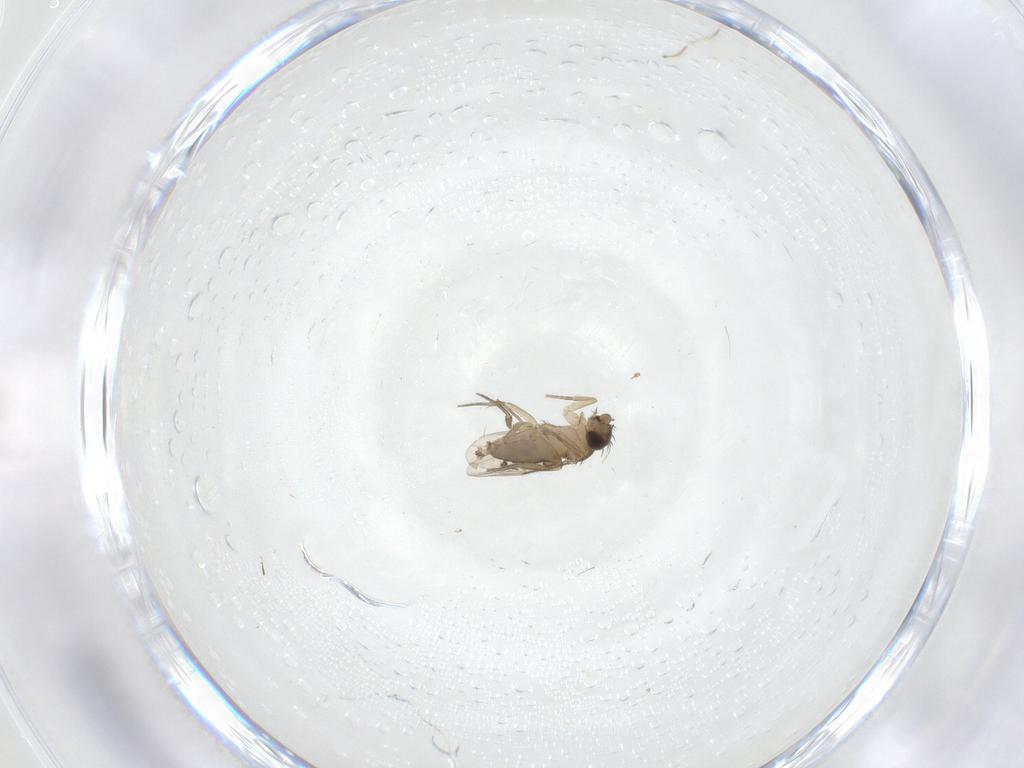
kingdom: Animalia
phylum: Arthropoda
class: Insecta
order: Diptera
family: Phoridae
